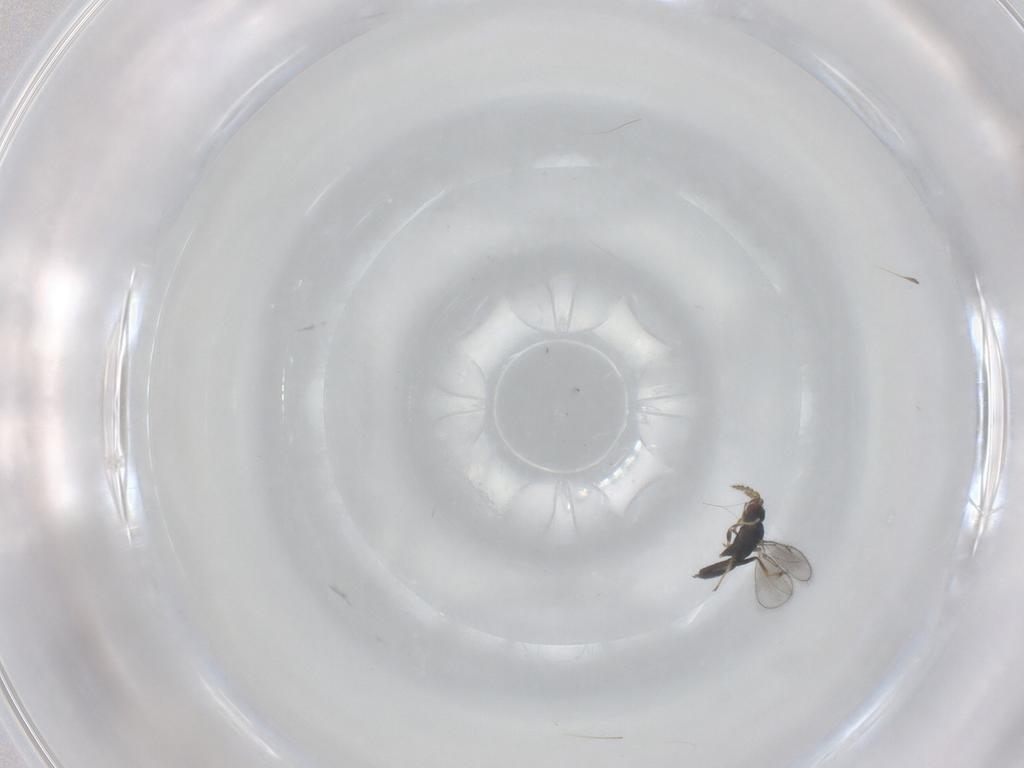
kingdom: Animalia
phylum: Arthropoda
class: Insecta
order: Hymenoptera
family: Eulophidae
